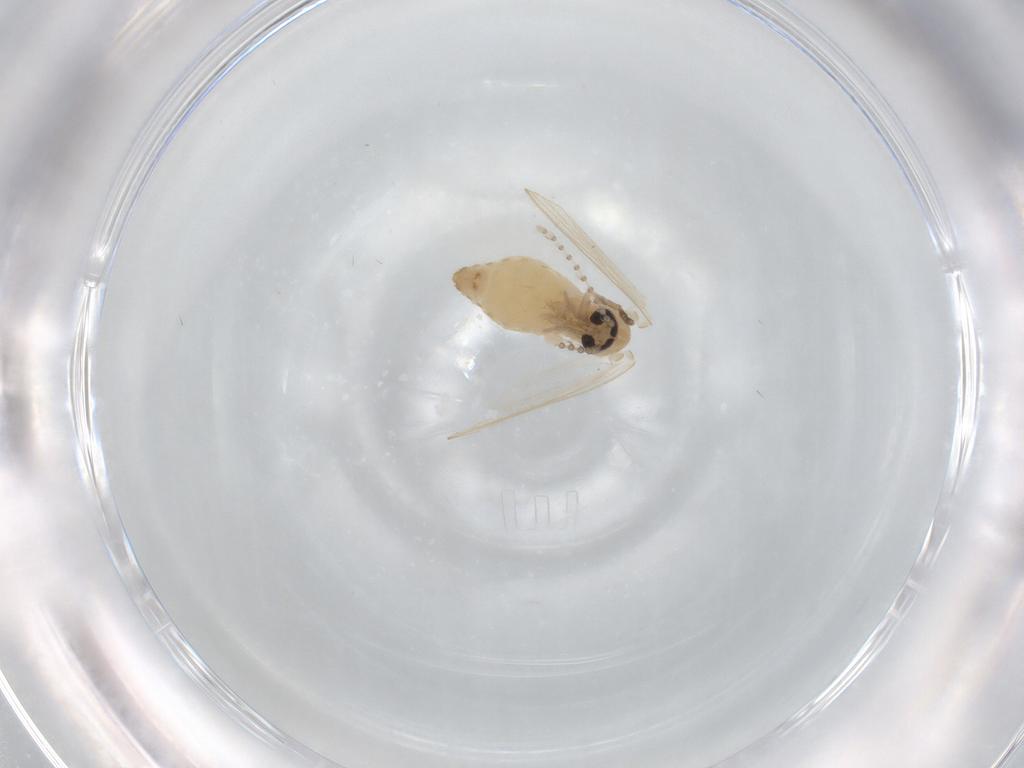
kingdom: Animalia
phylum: Arthropoda
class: Insecta
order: Diptera
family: Psychodidae
